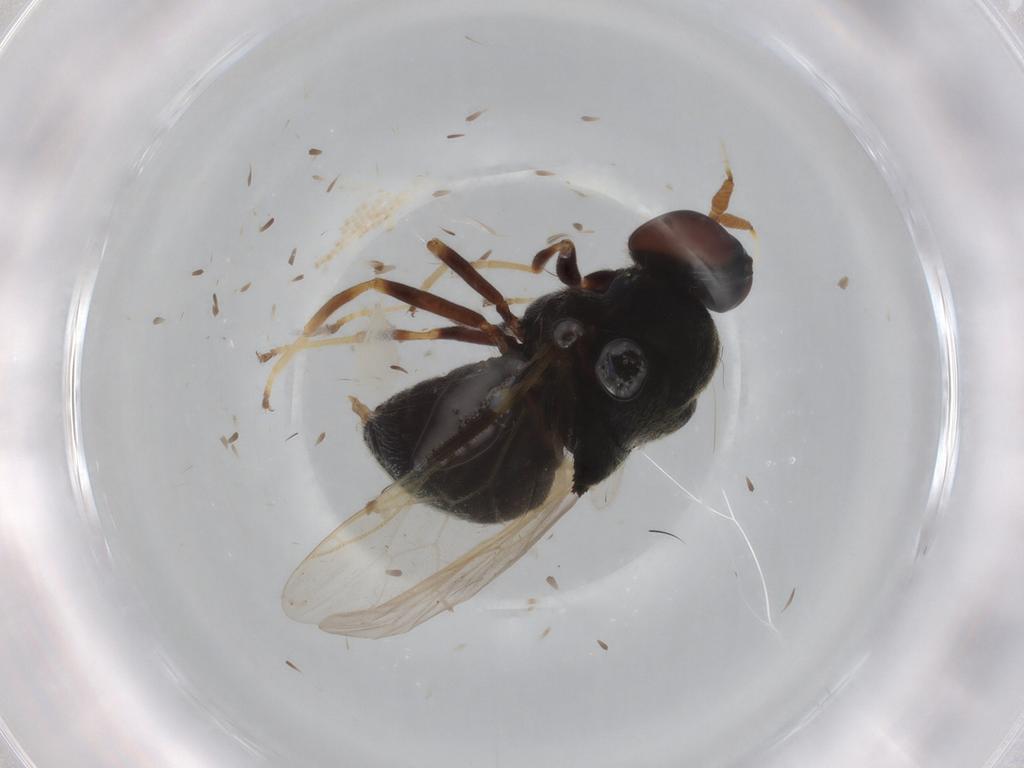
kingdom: Animalia
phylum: Arthropoda
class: Insecta
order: Diptera
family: Stratiomyidae
